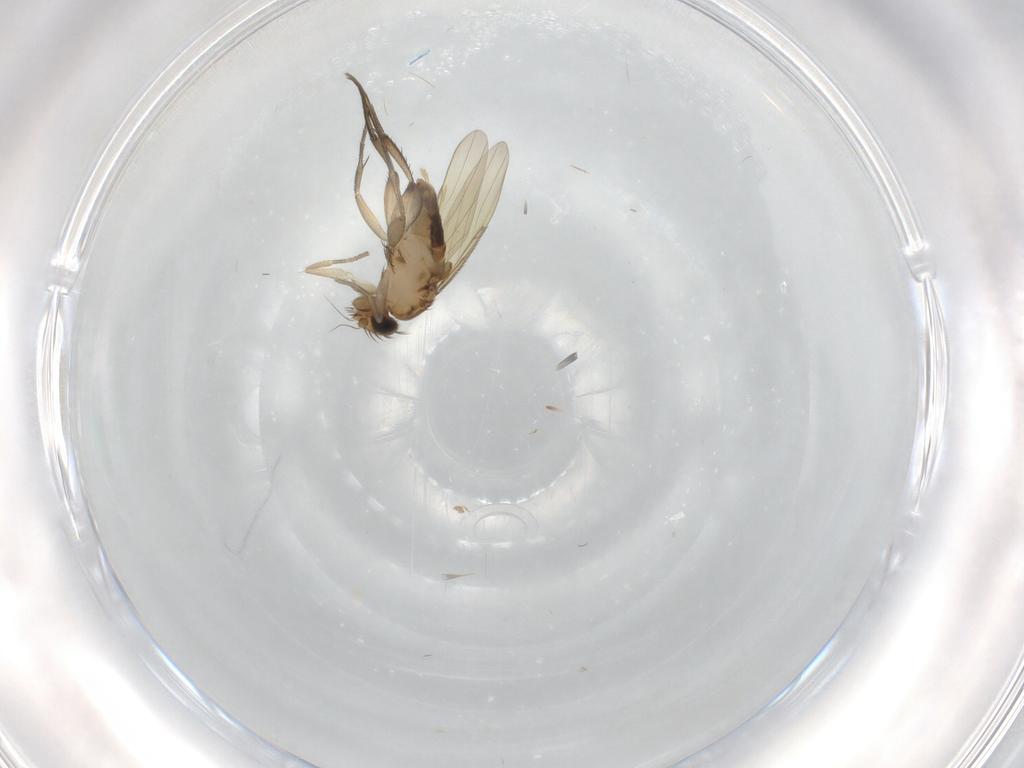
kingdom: Animalia
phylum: Arthropoda
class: Insecta
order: Diptera
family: Phoridae
